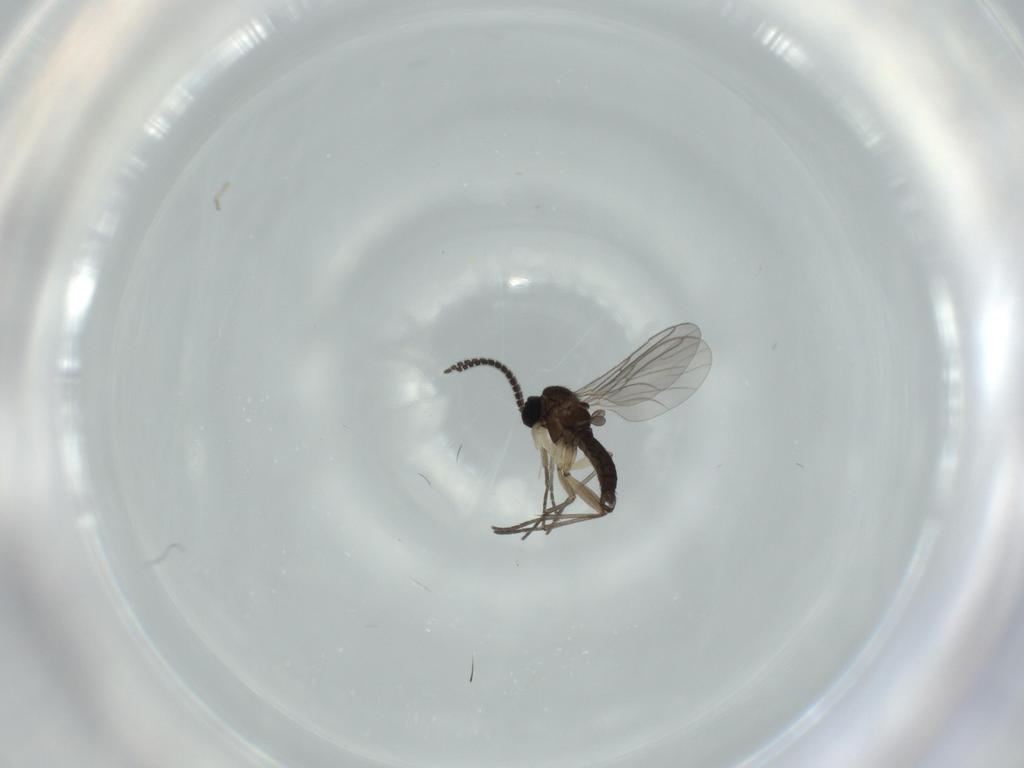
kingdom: Animalia
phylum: Arthropoda
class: Insecta
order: Diptera
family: Sciaridae
